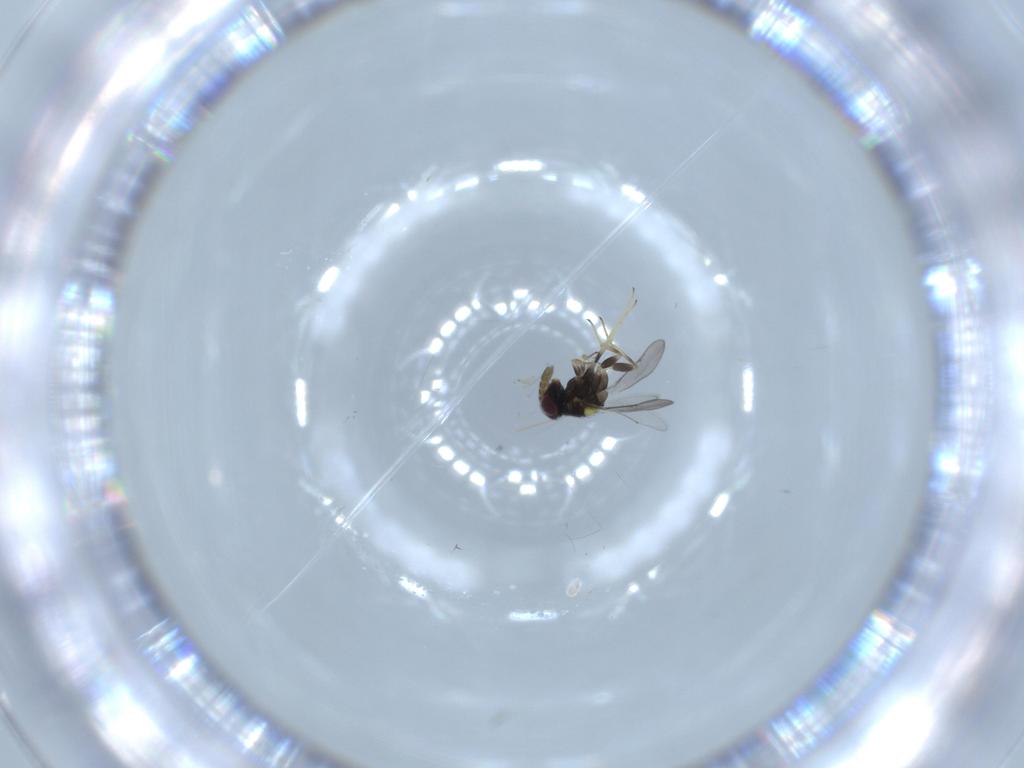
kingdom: Animalia
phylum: Arthropoda
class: Insecta
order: Hymenoptera
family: Aphelinidae
